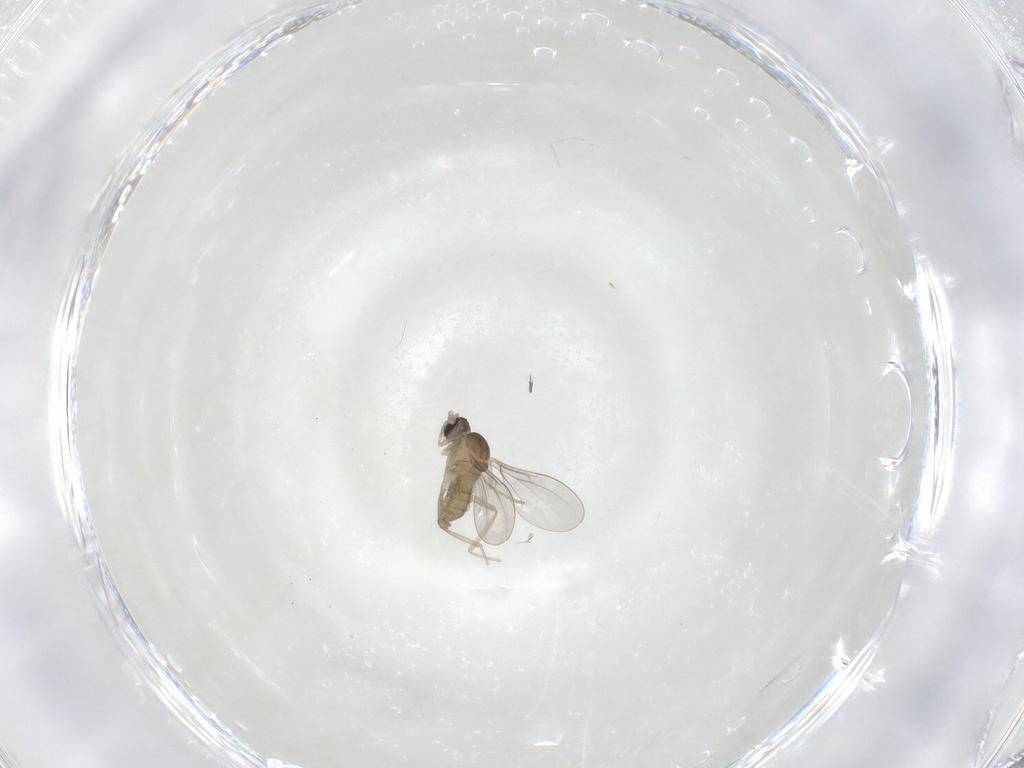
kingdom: Animalia
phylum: Arthropoda
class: Insecta
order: Diptera
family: Cecidomyiidae
